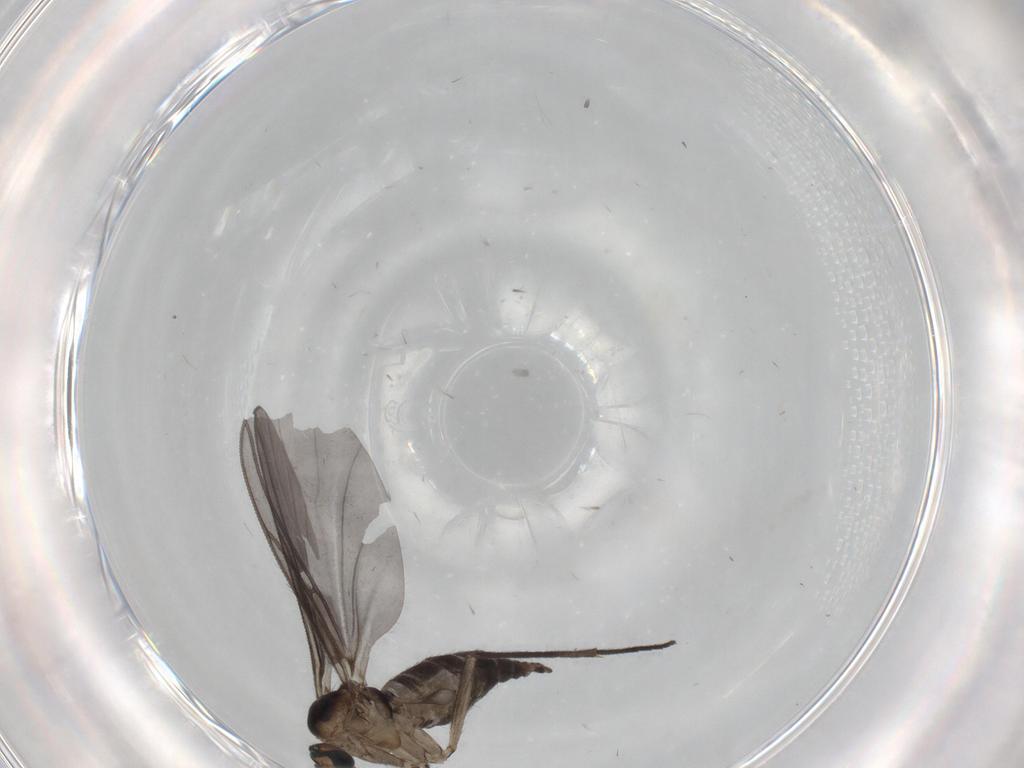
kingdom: Animalia
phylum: Arthropoda
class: Insecta
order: Diptera
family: Sciaridae
